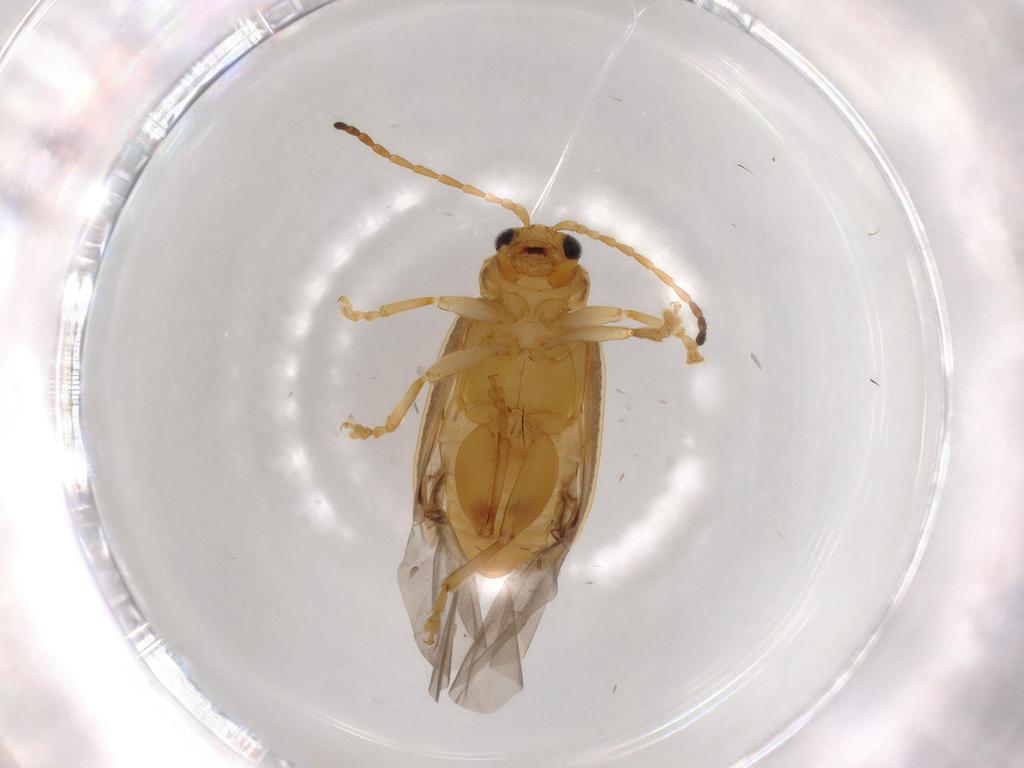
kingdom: Animalia
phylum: Arthropoda
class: Insecta
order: Coleoptera
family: Chrysomelidae
